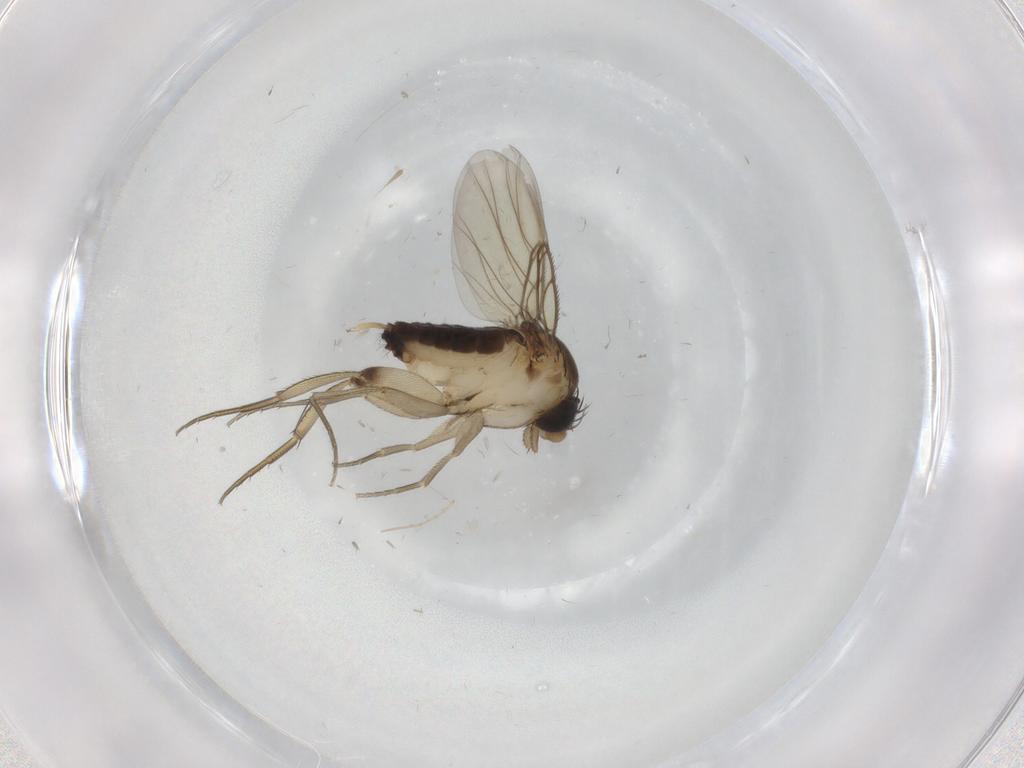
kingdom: Animalia
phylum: Arthropoda
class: Insecta
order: Diptera
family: Phoridae
